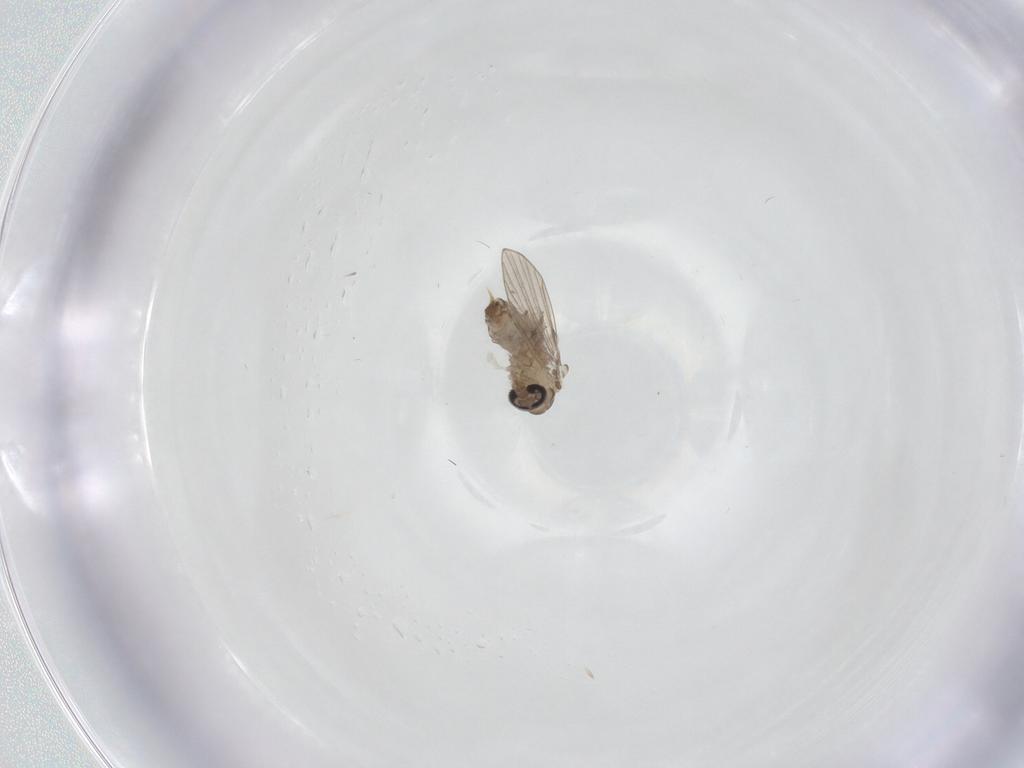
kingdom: Animalia
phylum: Arthropoda
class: Insecta
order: Diptera
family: Psychodidae
